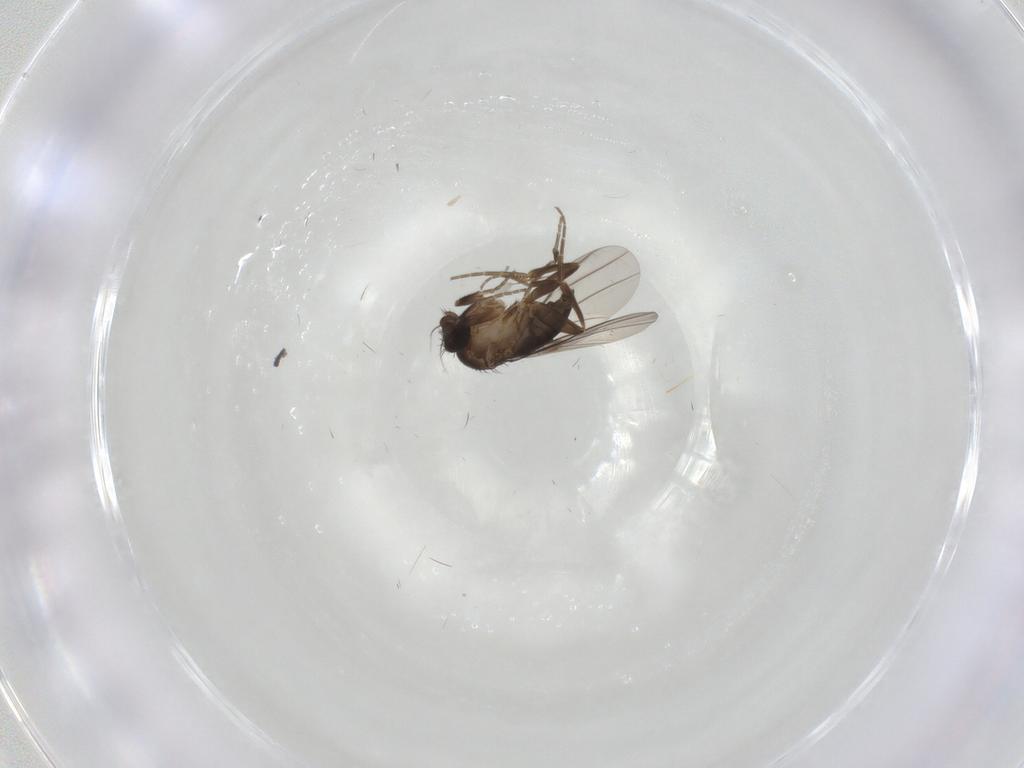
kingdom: Animalia
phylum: Arthropoda
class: Insecta
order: Diptera
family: Phoridae
